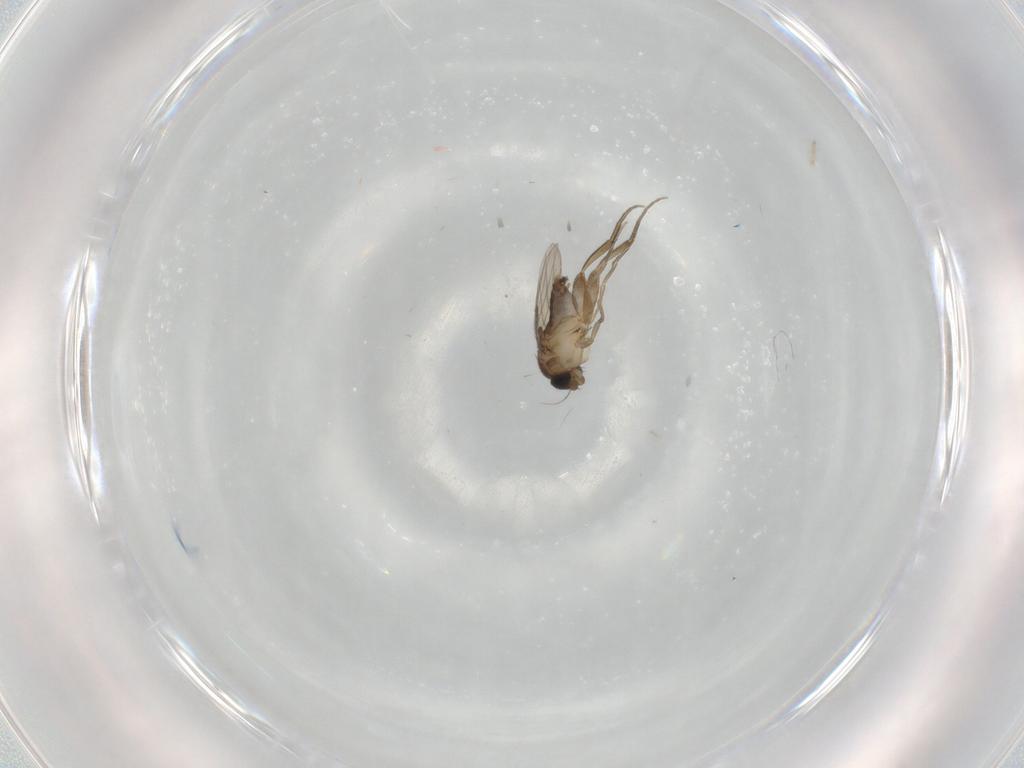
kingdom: Animalia
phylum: Arthropoda
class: Insecta
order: Diptera
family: Phoridae
